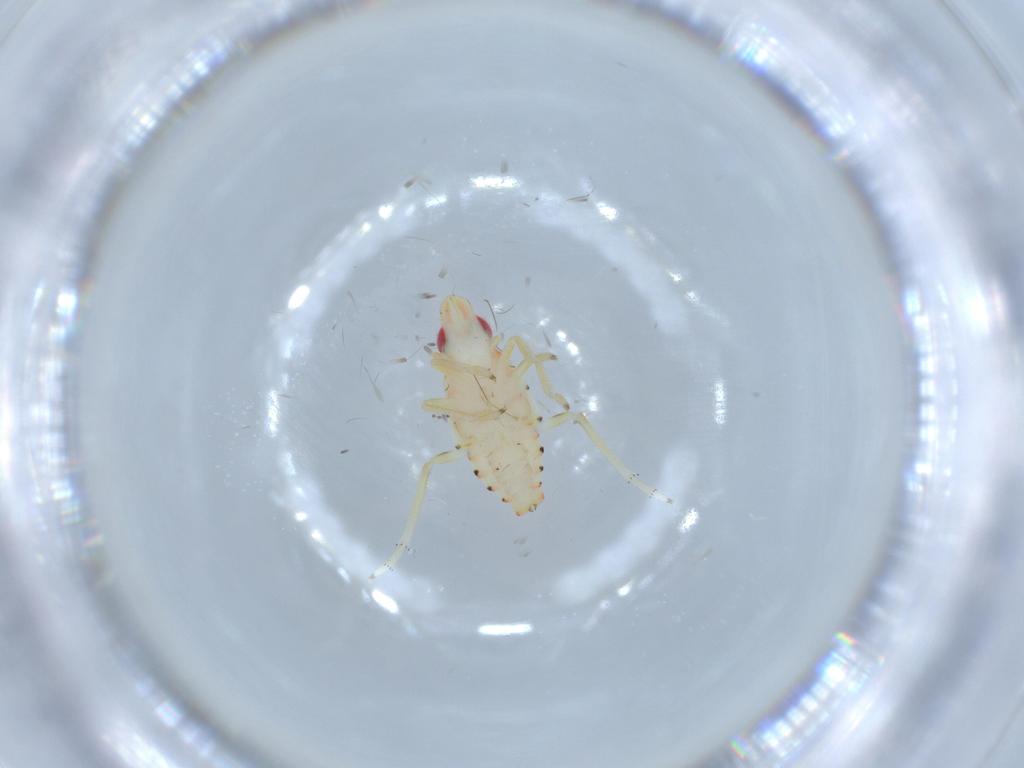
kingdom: Animalia
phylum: Arthropoda
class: Insecta
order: Hemiptera
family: Tropiduchidae
